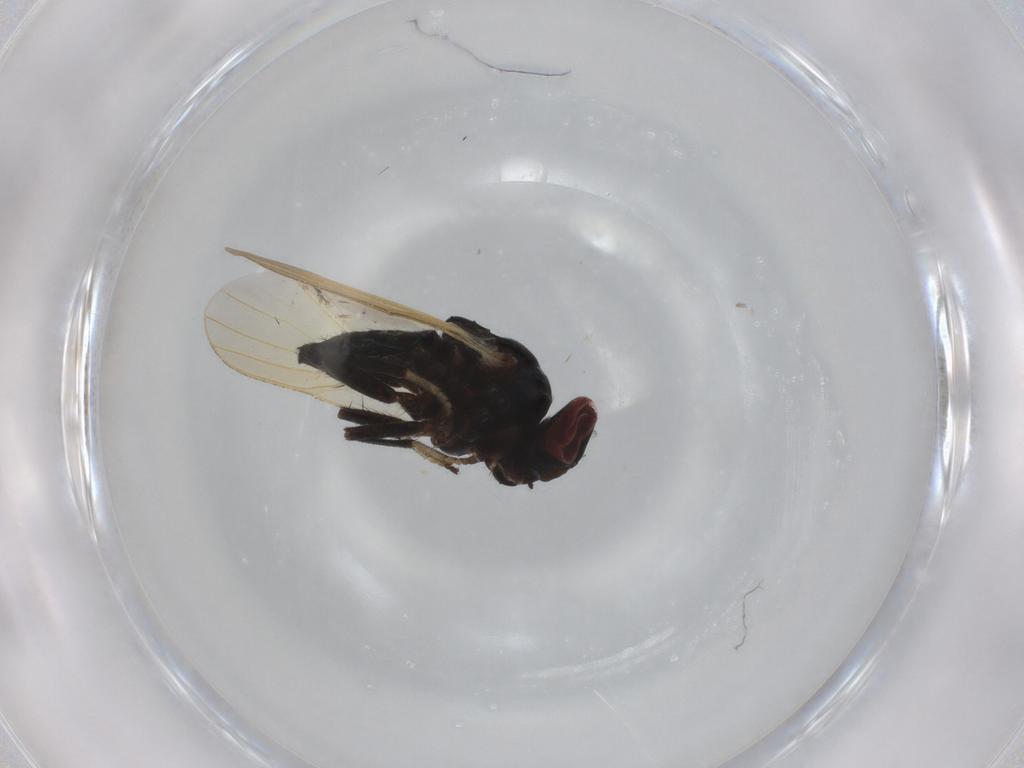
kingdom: Animalia
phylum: Arthropoda
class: Insecta
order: Diptera
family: Lonchaeidae
